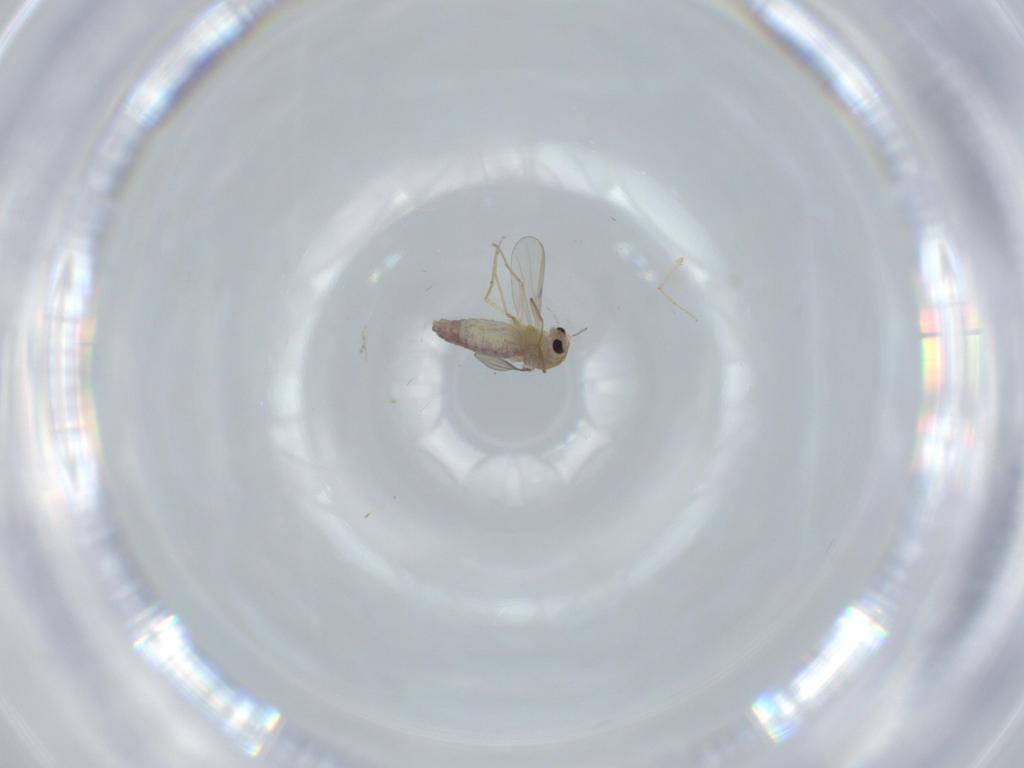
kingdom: Animalia
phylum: Arthropoda
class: Insecta
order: Diptera
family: Chironomidae
